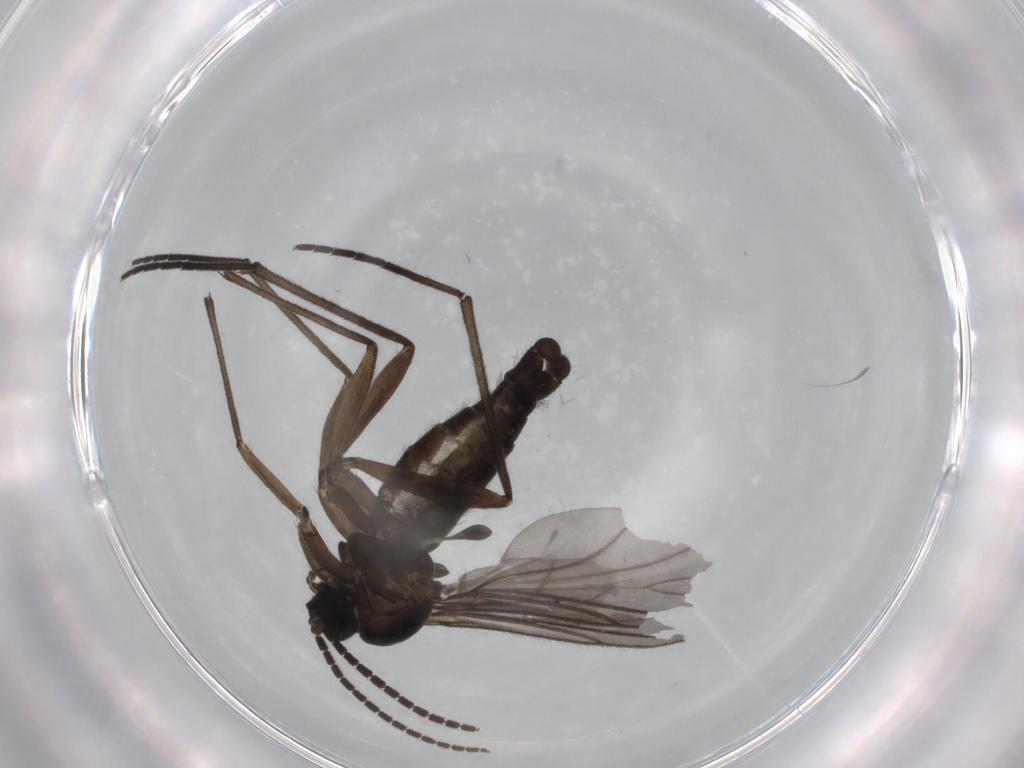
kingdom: Animalia
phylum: Arthropoda
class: Insecta
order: Diptera
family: Sciaridae
